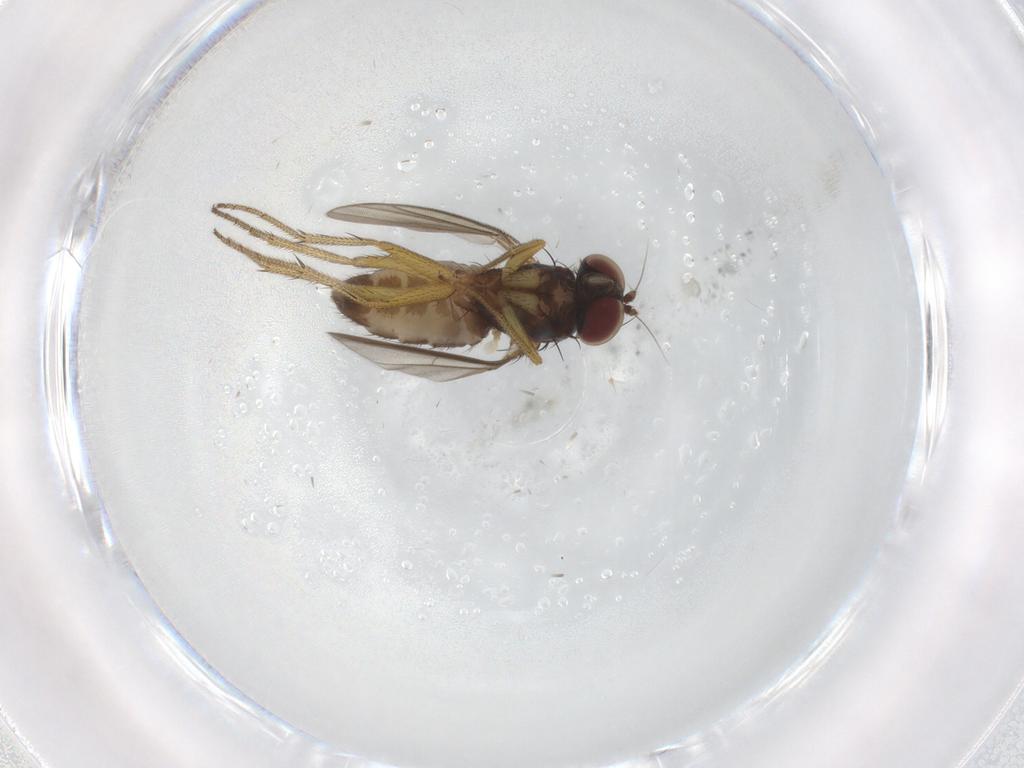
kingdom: Animalia
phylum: Arthropoda
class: Insecta
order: Diptera
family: Dolichopodidae
